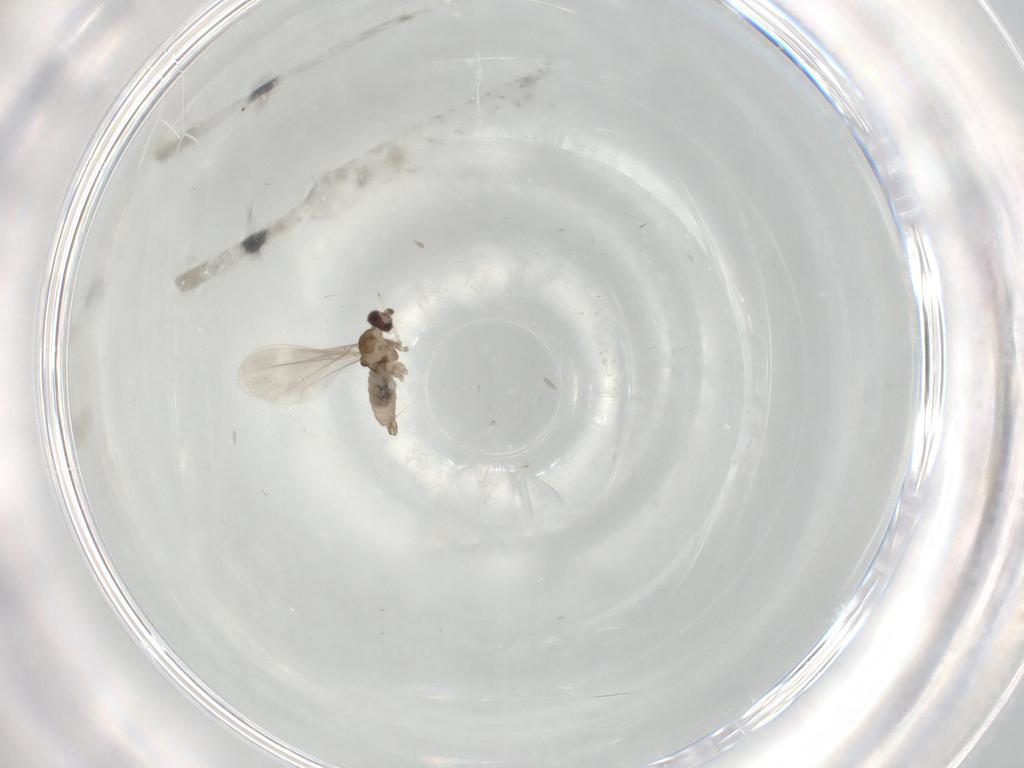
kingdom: Animalia
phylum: Arthropoda
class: Insecta
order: Diptera
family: Cecidomyiidae
